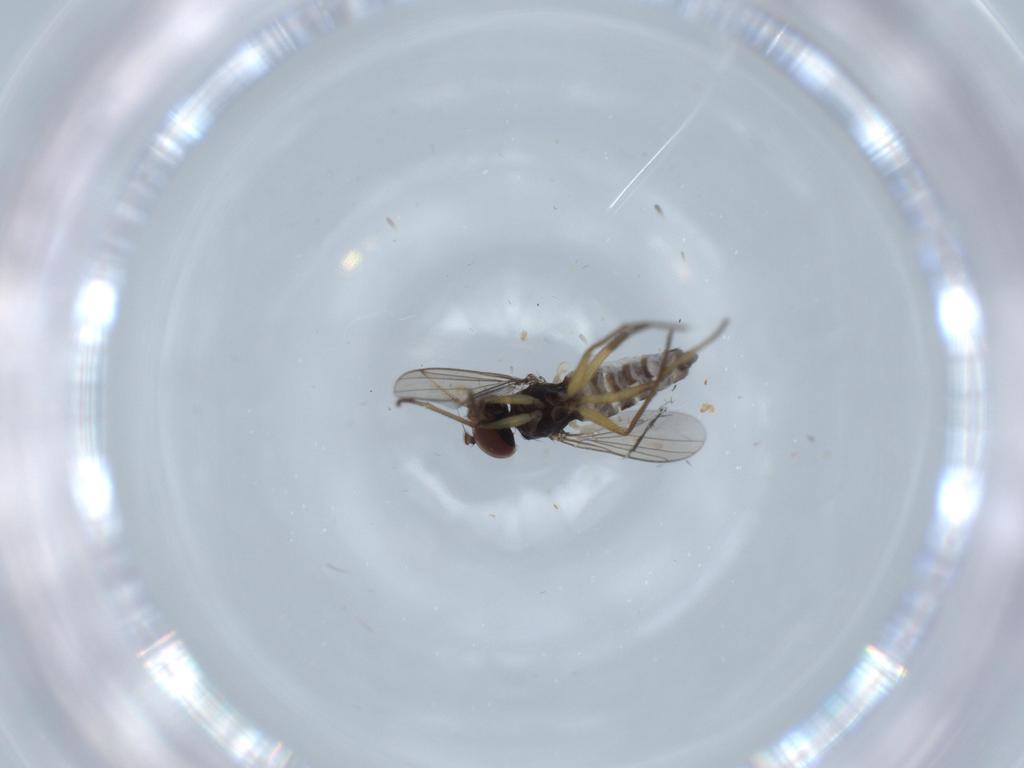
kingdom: Animalia
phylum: Arthropoda
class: Insecta
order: Diptera
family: Dolichopodidae
